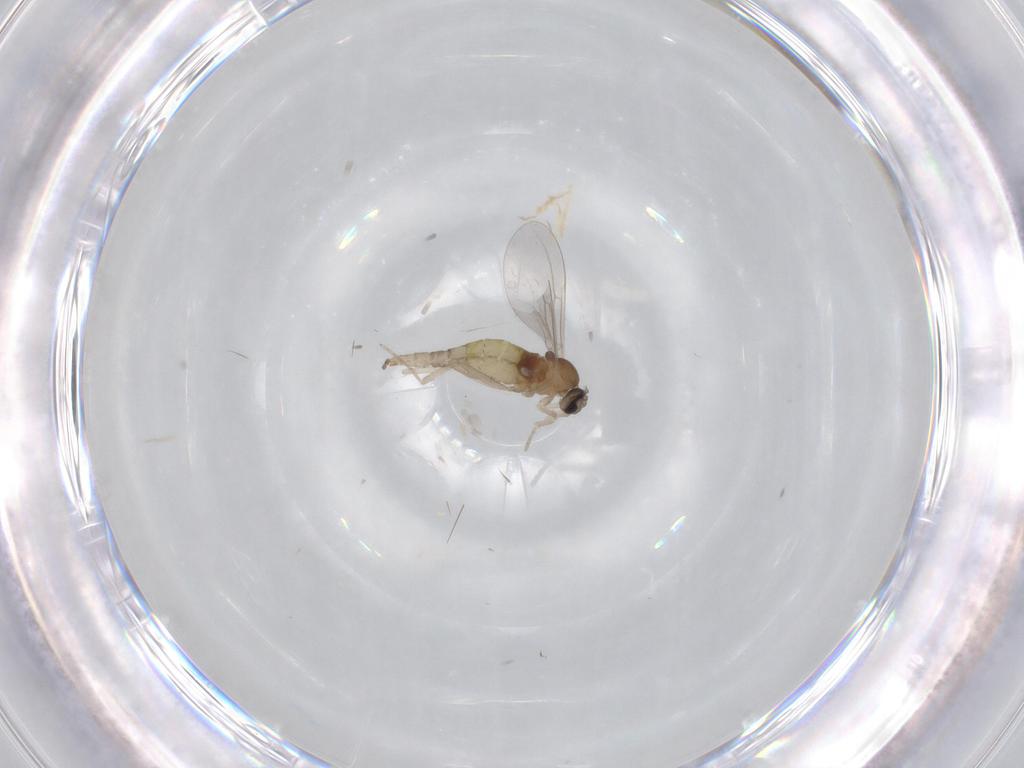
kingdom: Animalia
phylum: Arthropoda
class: Insecta
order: Diptera
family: Cecidomyiidae
